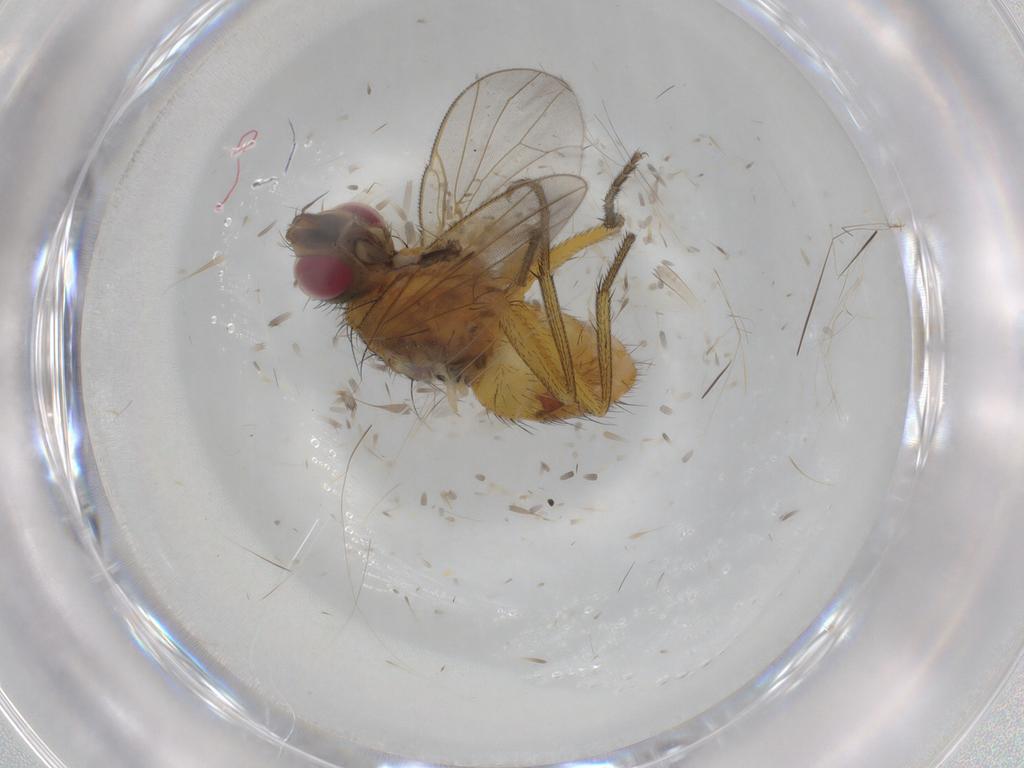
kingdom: Animalia
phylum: Arthropoda
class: Insecta
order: Diptera
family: Muscidae
